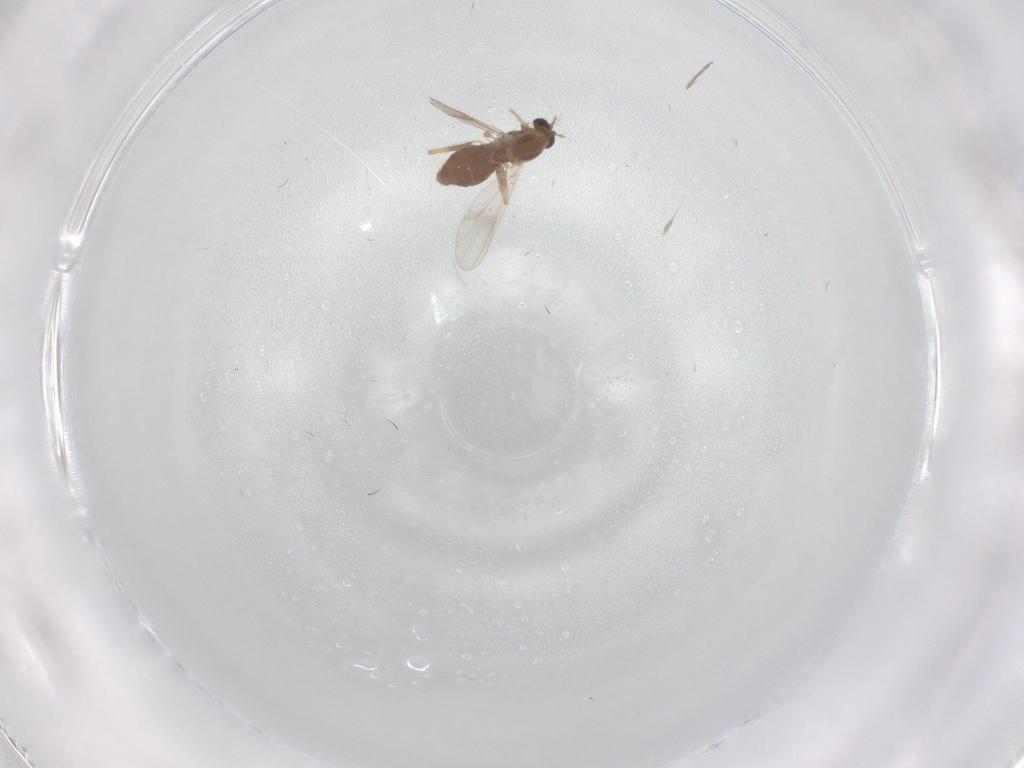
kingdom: Animalia
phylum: Arthropoda
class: Insecta
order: Diptera
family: Chironomidae
